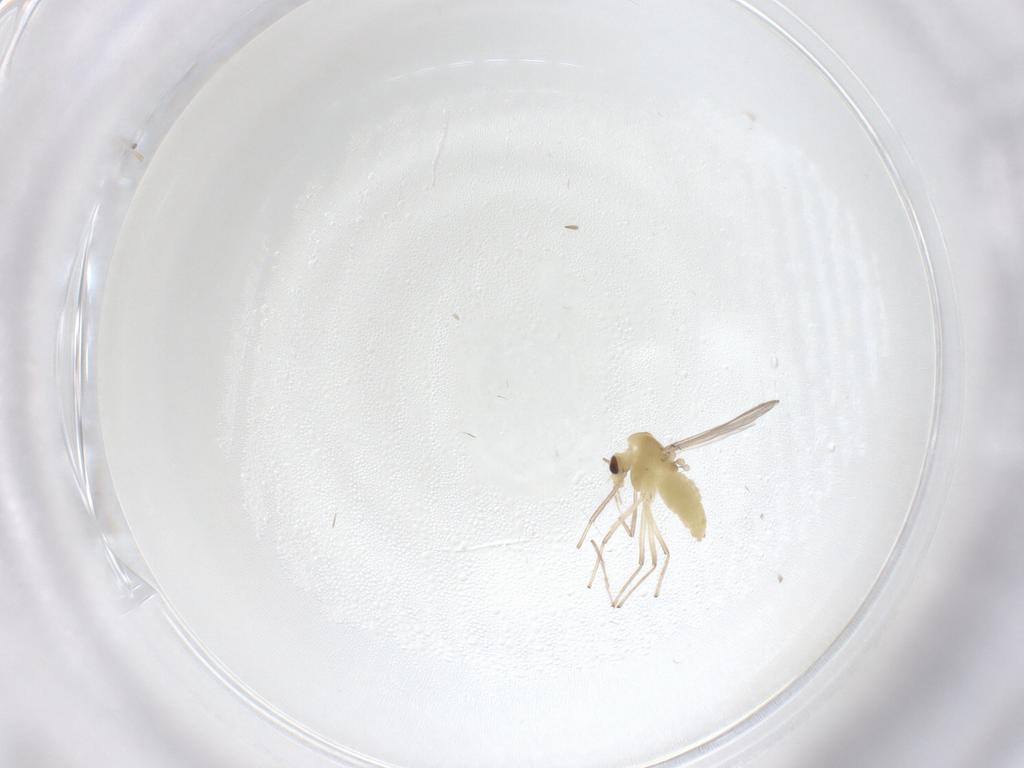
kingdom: Animalia
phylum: Arthropoda
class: Insecta
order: Diptera
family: Chironomidae
